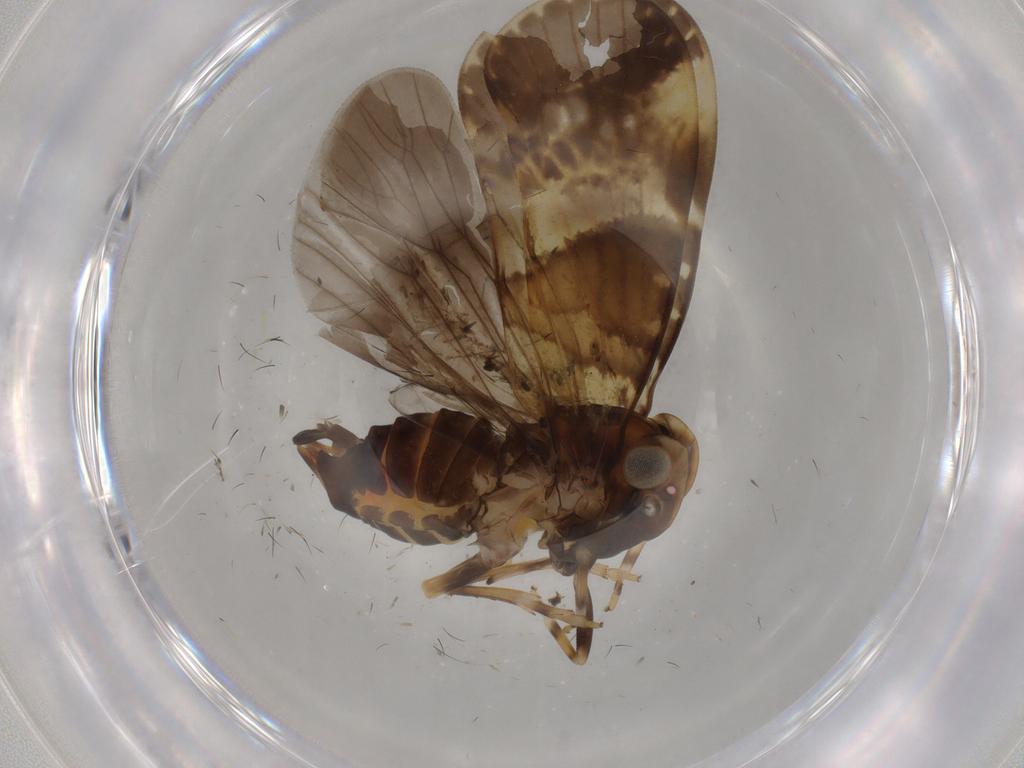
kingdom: Animalia
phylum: Arthropoda
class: Insecta
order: Hemiptera
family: Cixiidae
